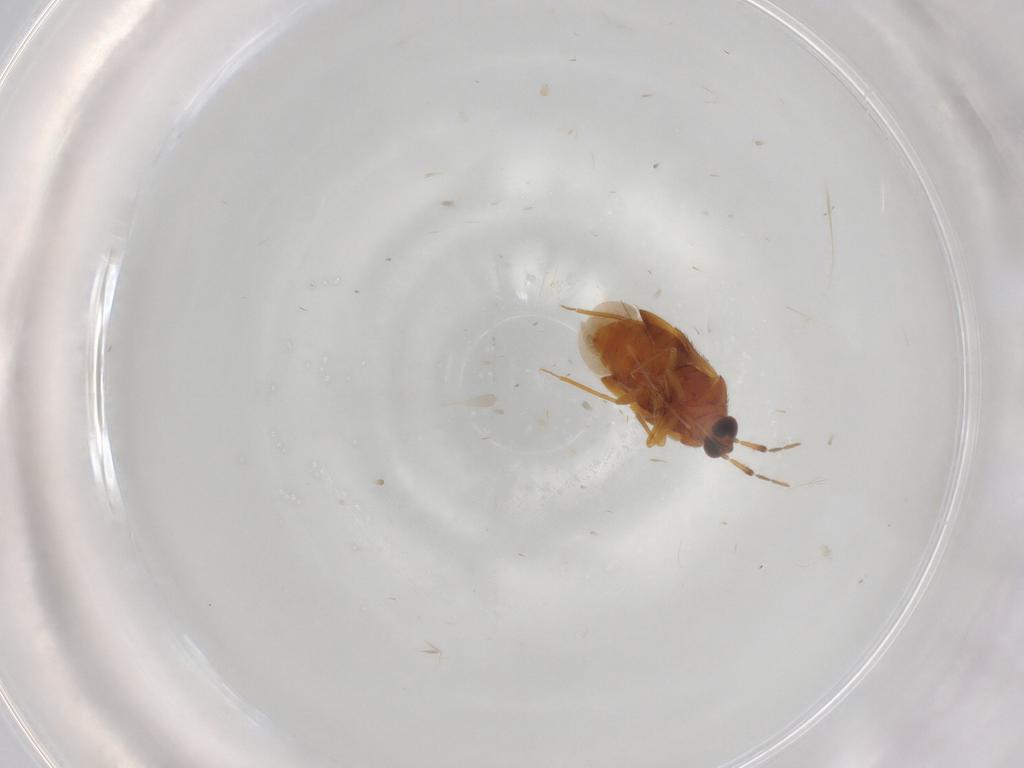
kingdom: Animalia
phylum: Arthropoda
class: Insecta
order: Hemiptera
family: Anthocoridae
